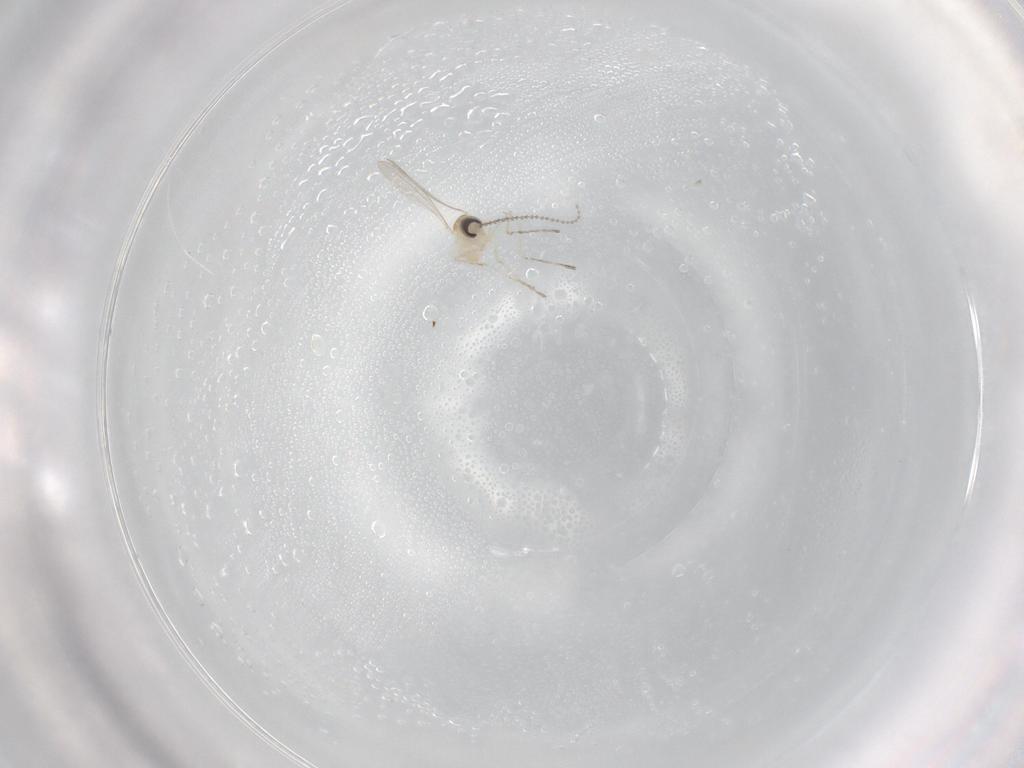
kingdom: Animalia
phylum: Arthropoda
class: Insecta
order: Diptera
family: Cecidomyiidae
